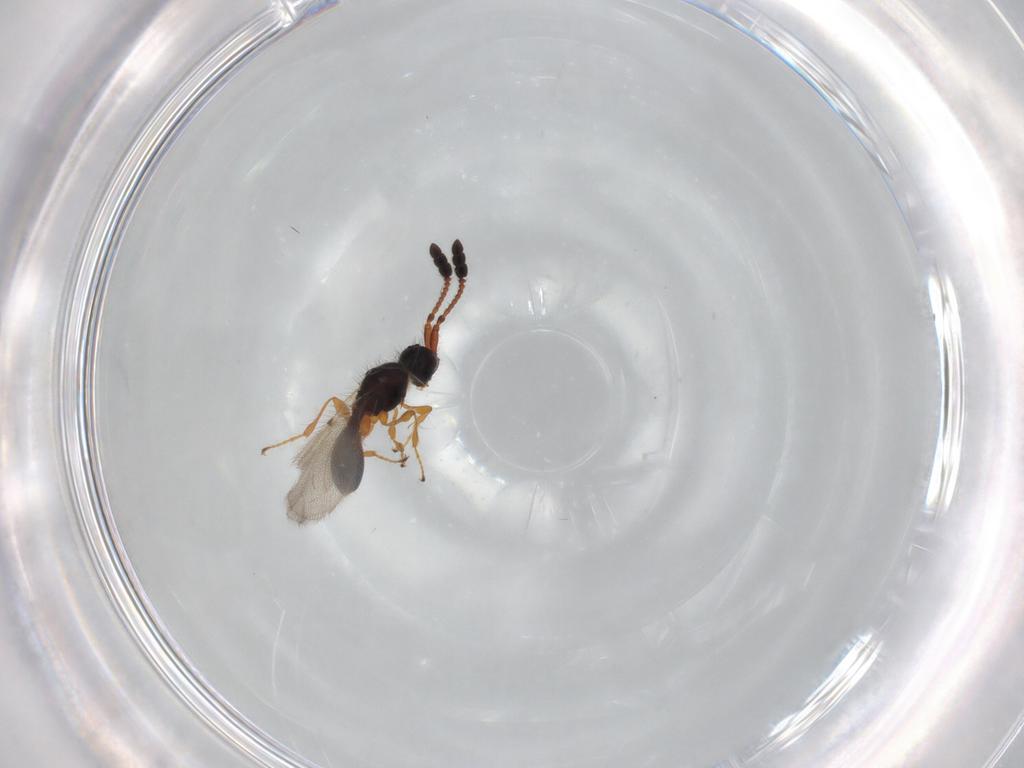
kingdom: Animalia
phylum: Arthropoda
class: Insecta
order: Hymenoptera
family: Diapriidae
